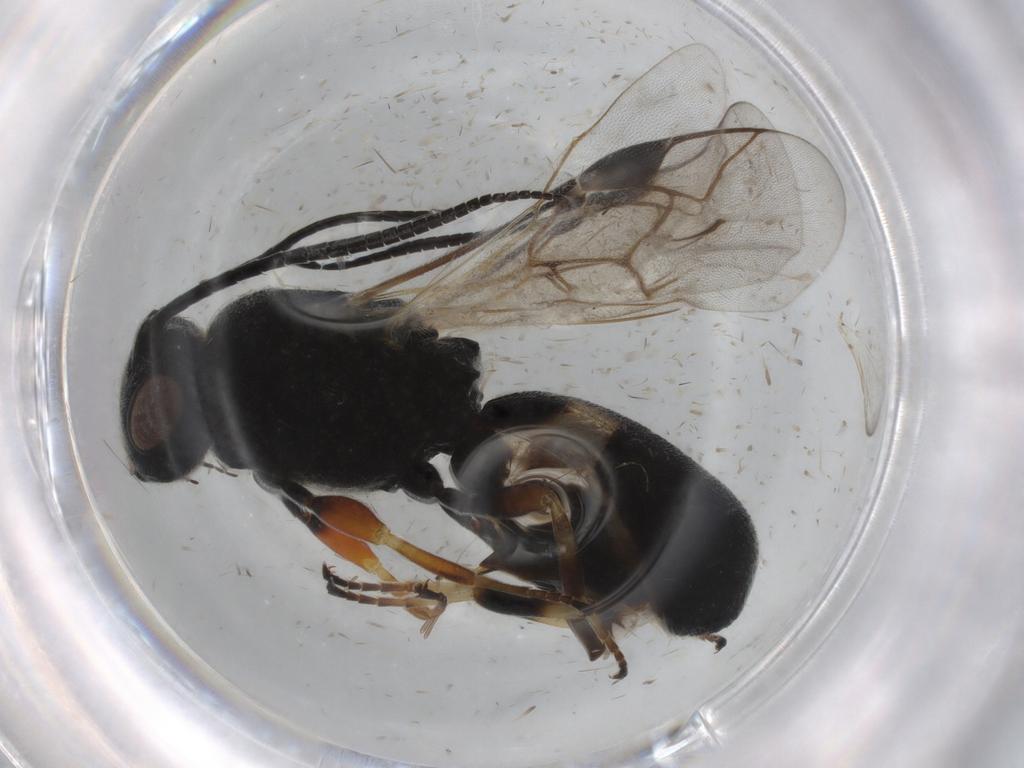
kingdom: Animalia
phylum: Arthropoda
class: Insecta
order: Hymenoptera
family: Braconidae
